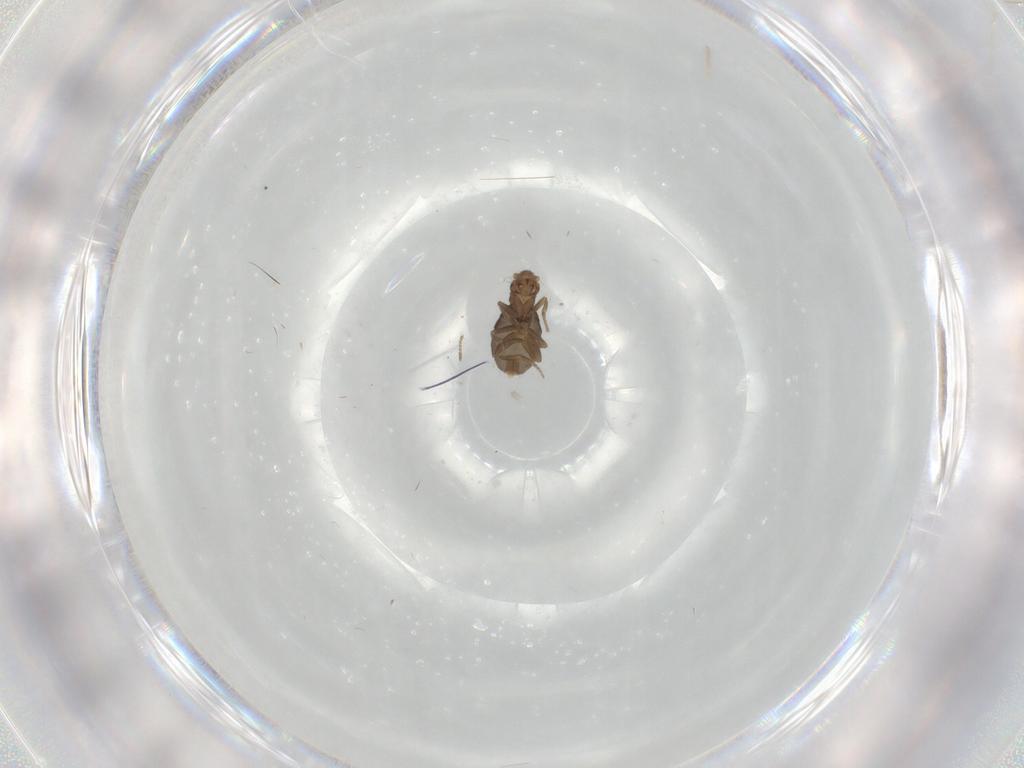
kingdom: Animalia
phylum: Arthropoda
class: Insecta
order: Diptera
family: Phoridae
